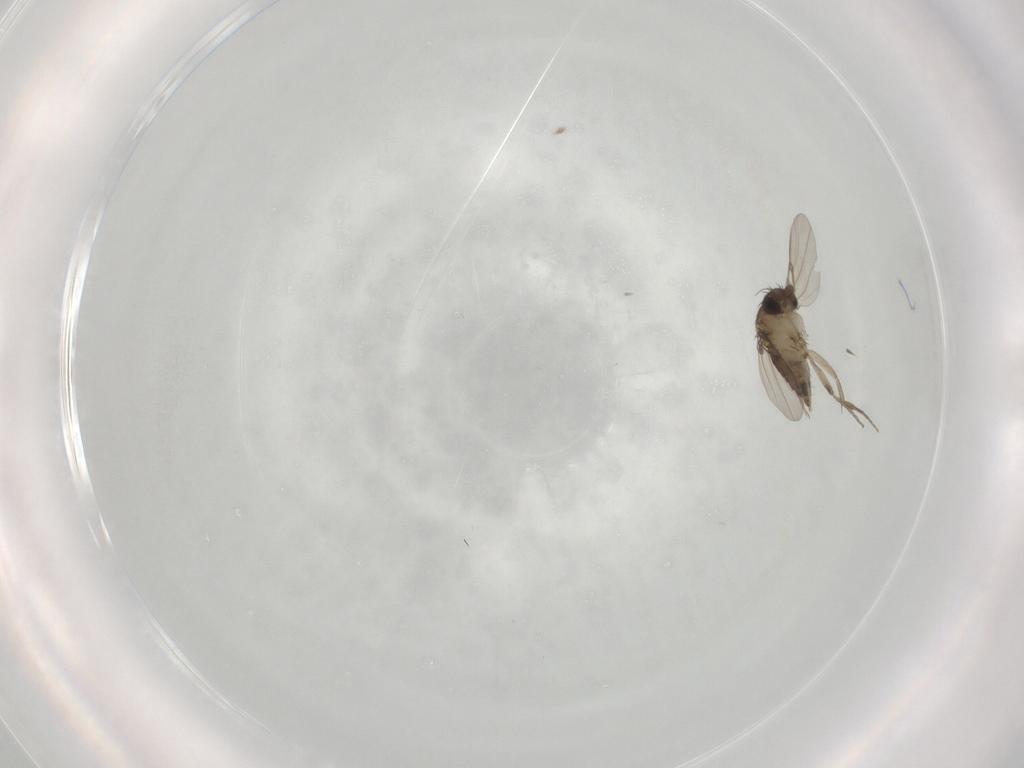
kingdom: Animalia
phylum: Arthropoda
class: Insecta
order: Diptera
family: Phoridae
